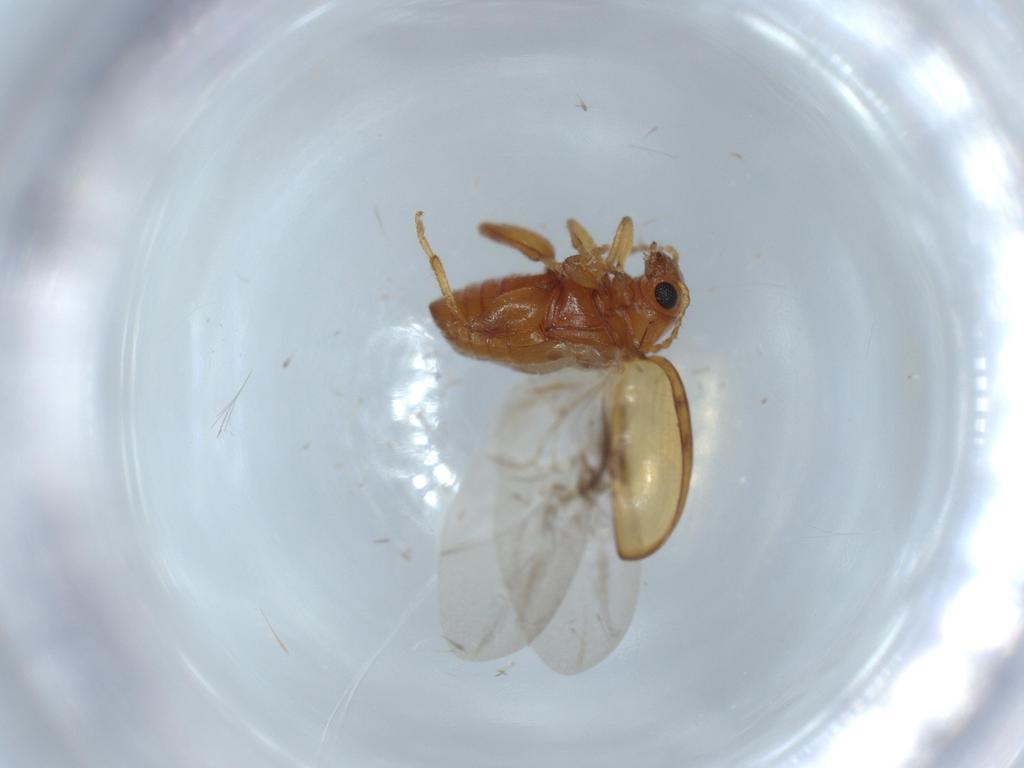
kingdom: Animalia
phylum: Arthropoda
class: Insecta
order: Coleoptera
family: Chrysomelidae
